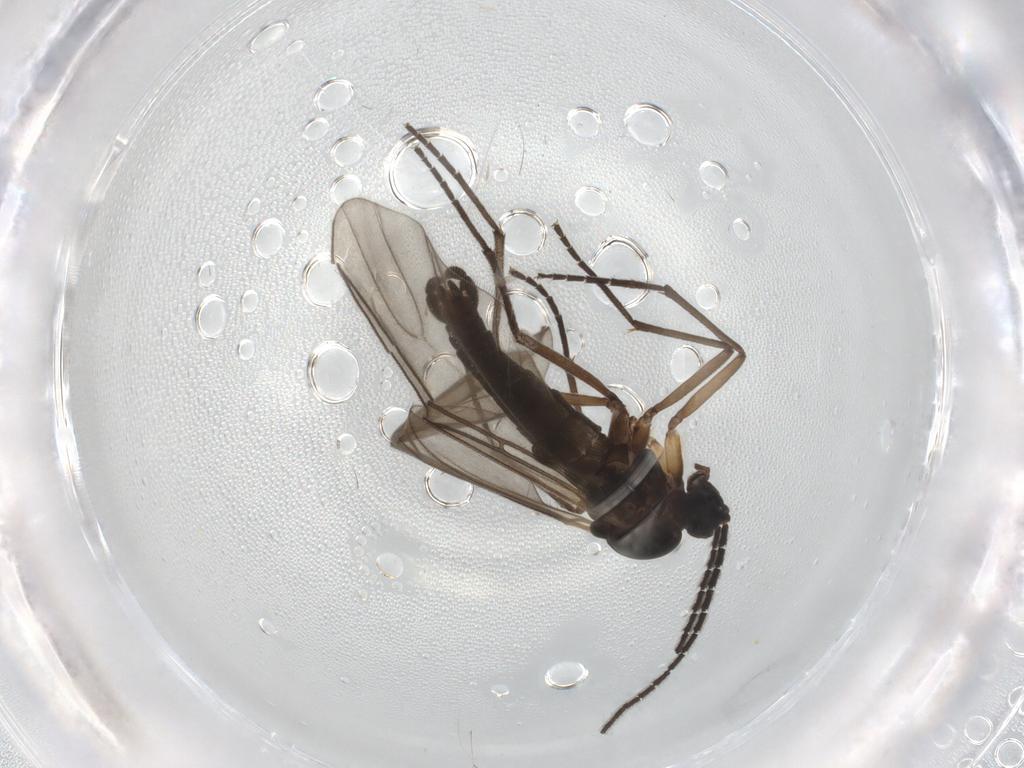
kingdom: Animalia
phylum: Arthropoda
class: Insecta
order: Diptera
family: Sciaridae
